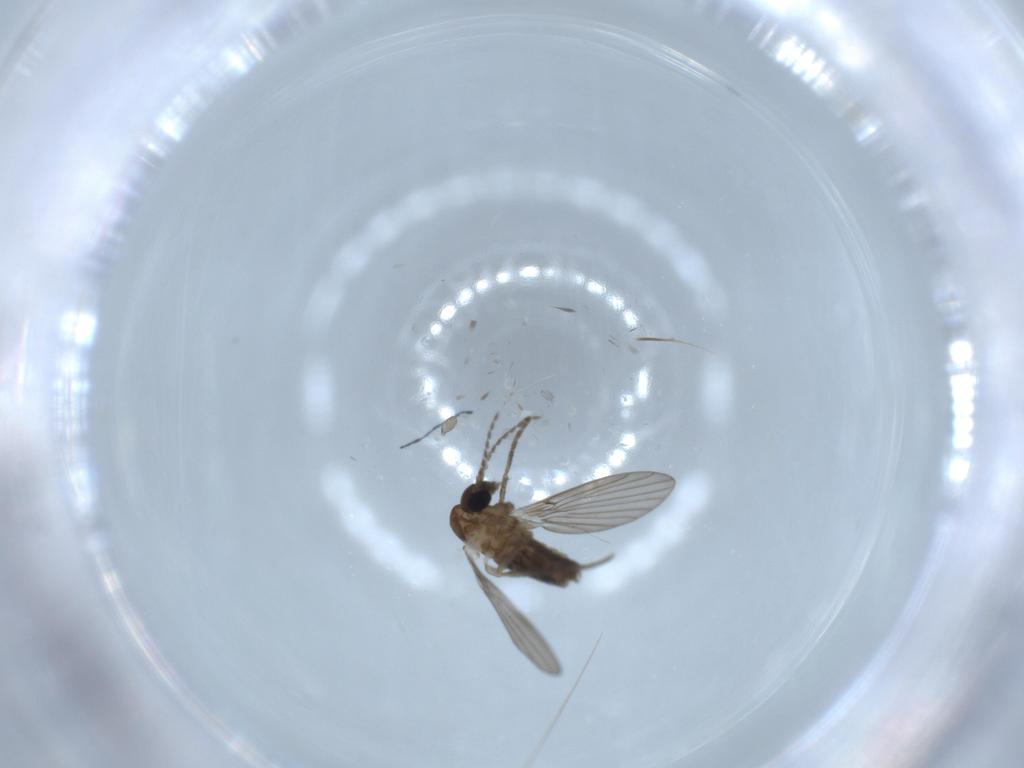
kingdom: Animalia
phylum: Arthropoda
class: Insecta
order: Diptera
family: Psychodidae
